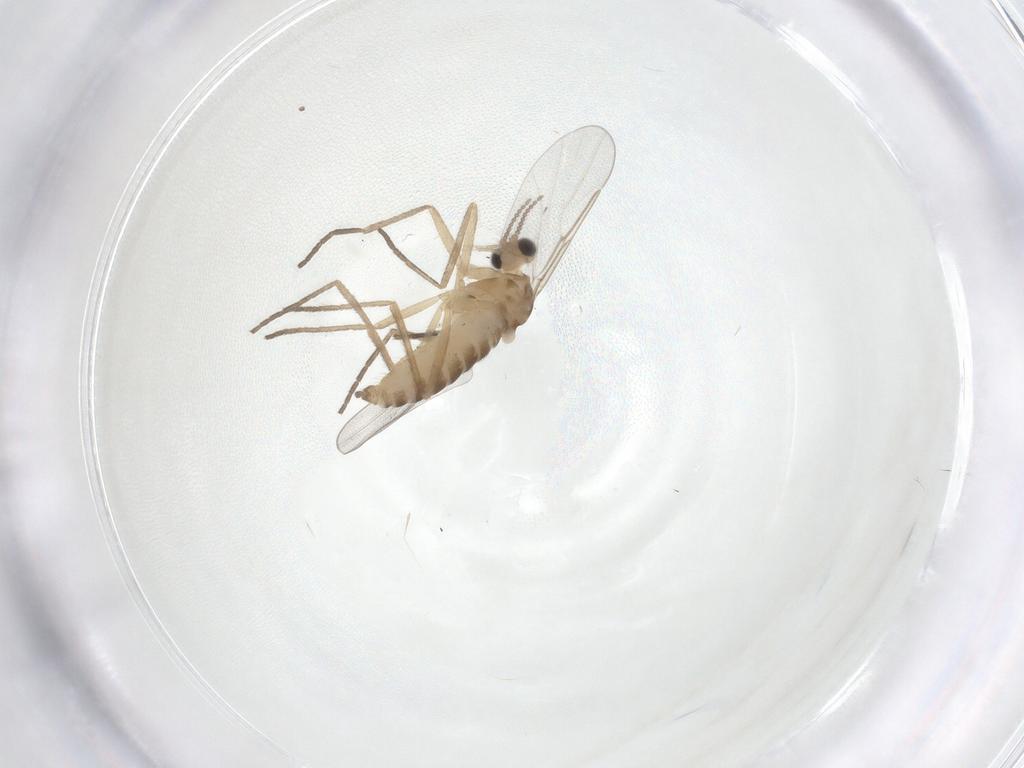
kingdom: Animalia
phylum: Arthropoda
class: Insecta
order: Diptera
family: Cecidomyiidae
